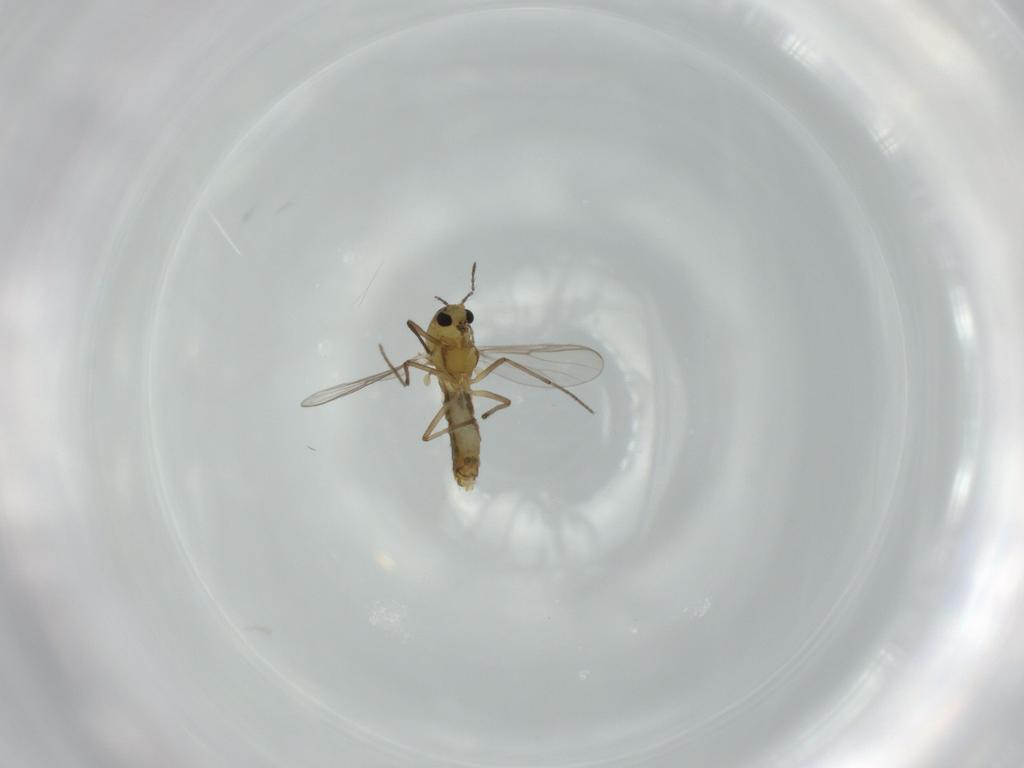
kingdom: Animalia
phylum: Arthropoda
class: Insecta
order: Diptera
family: Chironomidae
